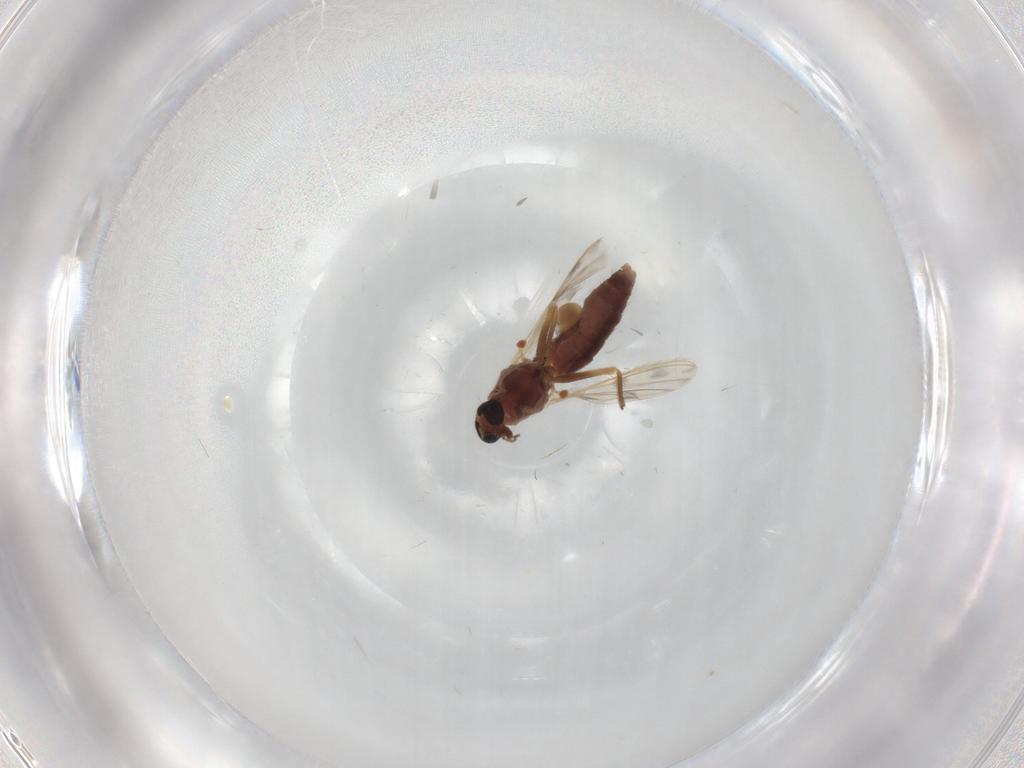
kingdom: Animalia
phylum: Arthropoda
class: Insecta
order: Diptera
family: Chironomidae
